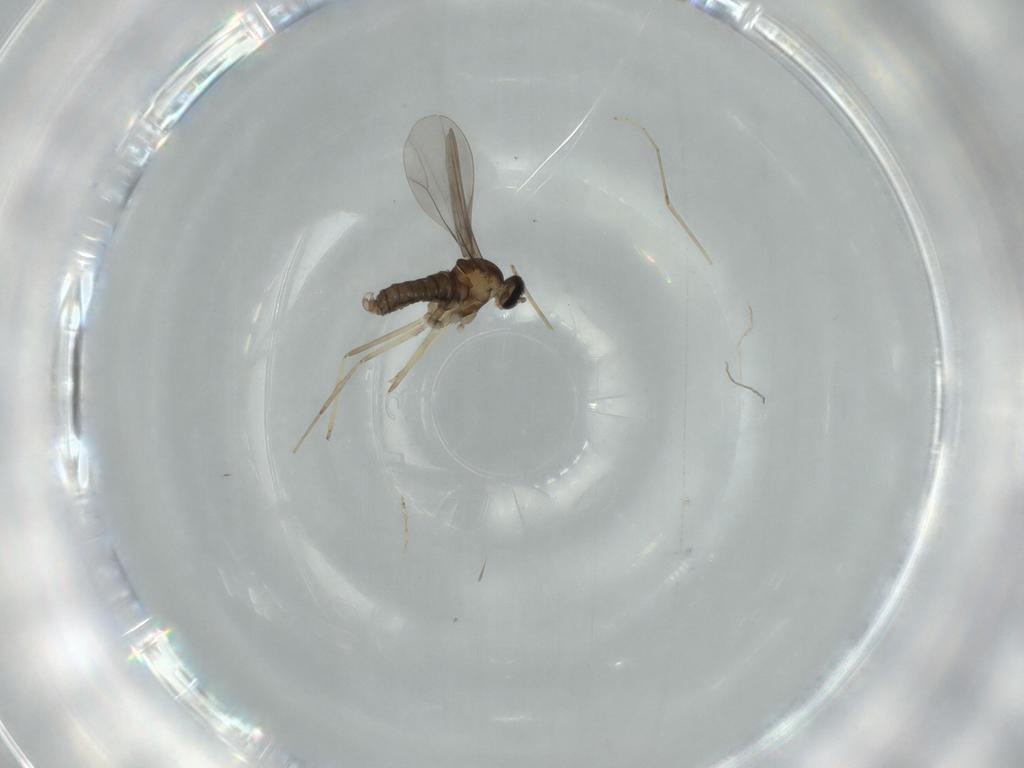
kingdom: Animalia
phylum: Arthropoda
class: Insecta
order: Diptera
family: Cecidomyiidae
